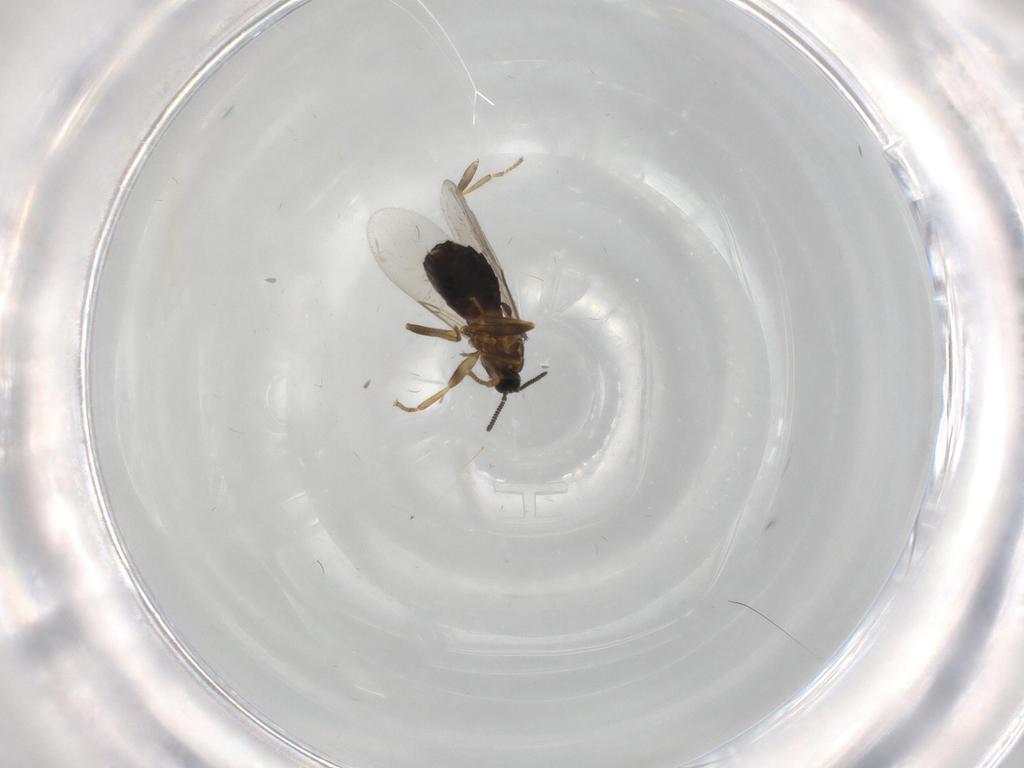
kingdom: Animalia
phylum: Arthropoda
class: Insecta
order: Diptera
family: Scatopsidae
